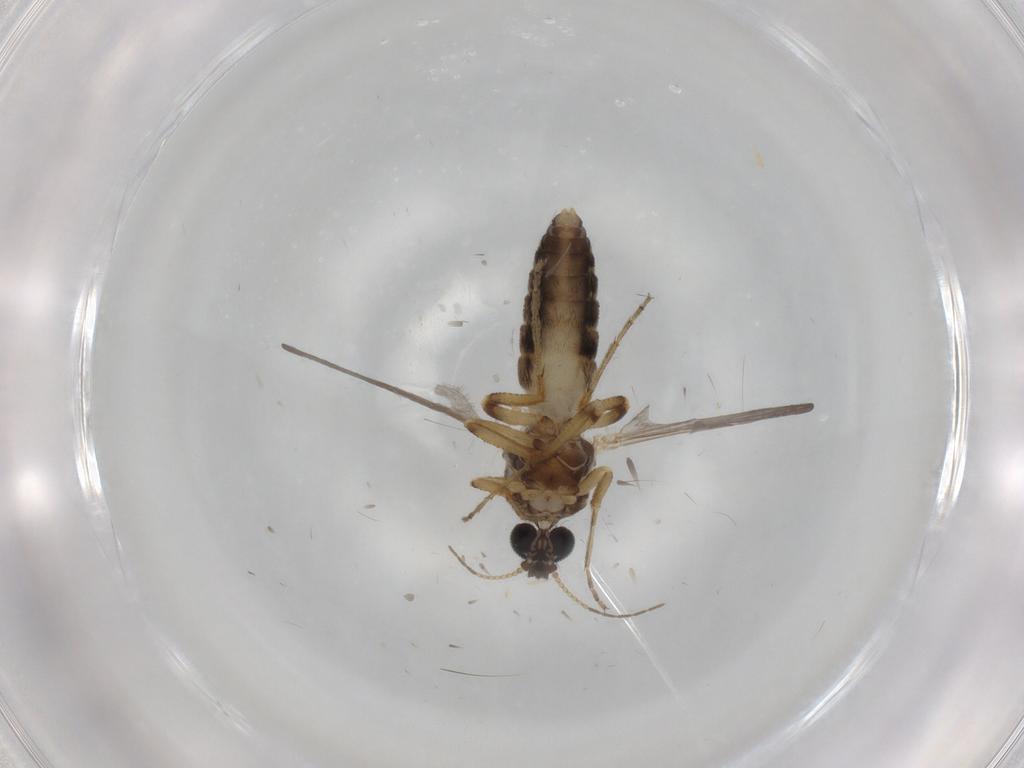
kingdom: Animalia
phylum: Arthropoda
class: Insecta
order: Diptera
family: Ceratopogonidae
